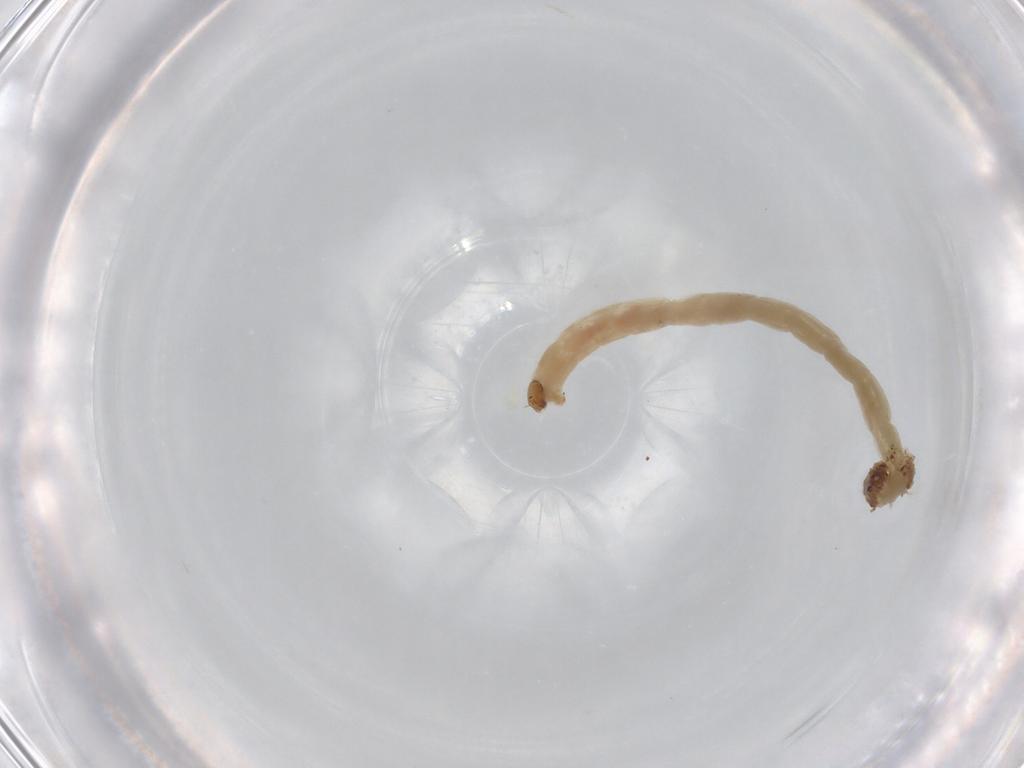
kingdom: Animalia
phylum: Arthropoda
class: Insecta
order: Diptera
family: Chironomidae
